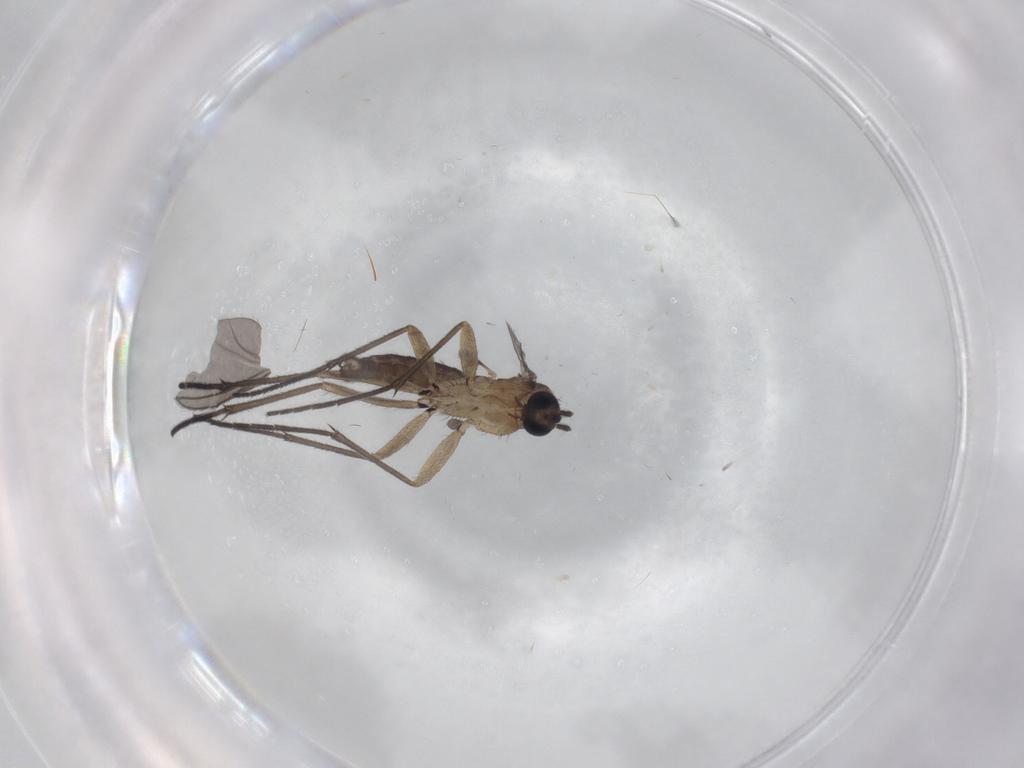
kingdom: Animalia
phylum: Arthropoda
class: Insecta
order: Diptera
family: Sciaridae
